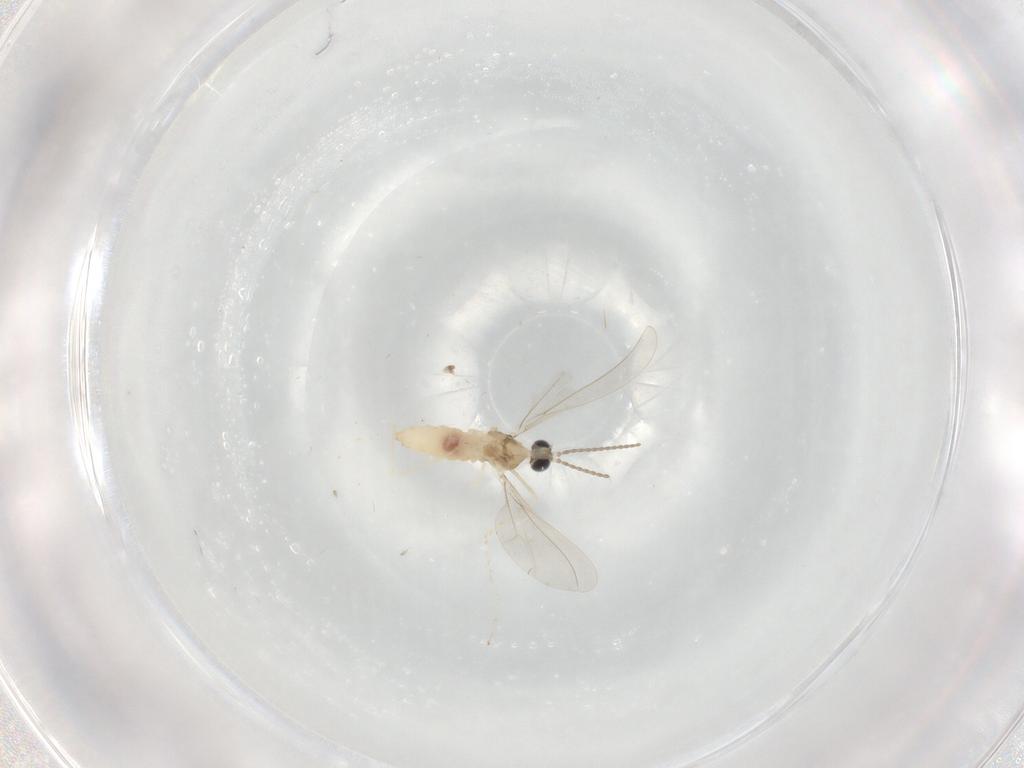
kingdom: Animalia
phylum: Arthropoda
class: Insecta
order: Diptera
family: Cecidomyiidae
